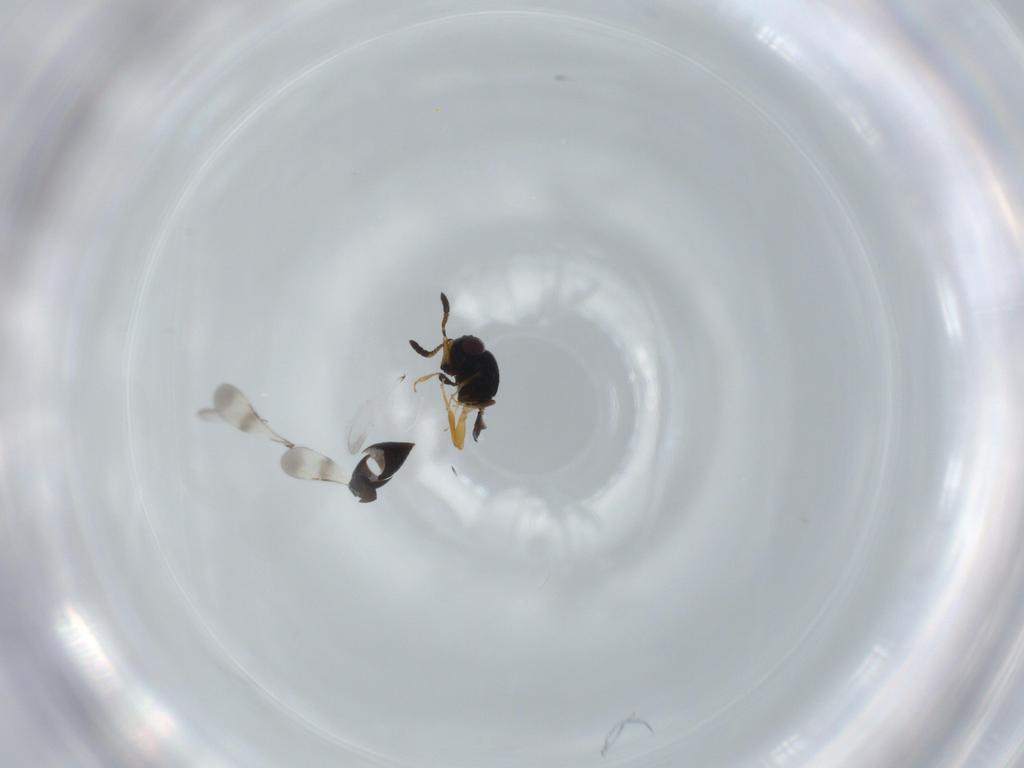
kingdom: Animalia
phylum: Arthropoda
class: Insecta
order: Hymenoptera
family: Ceraphronidae
